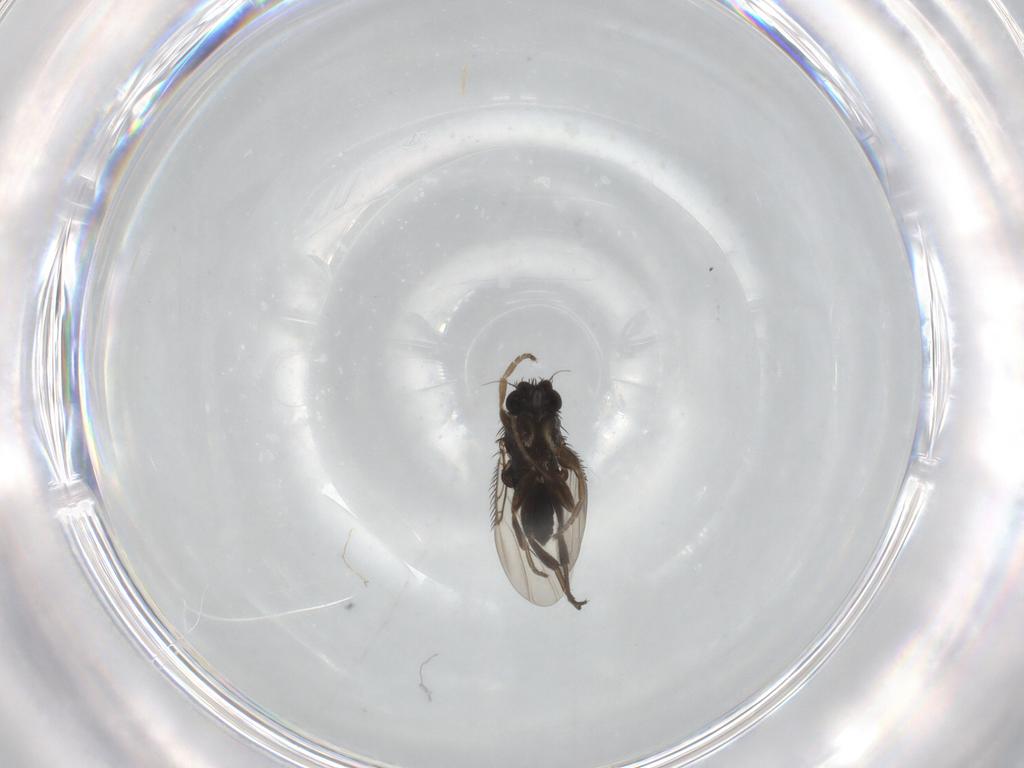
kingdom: Animalia
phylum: Arthropoda
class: Insecta
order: Diptera
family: Phoridae
